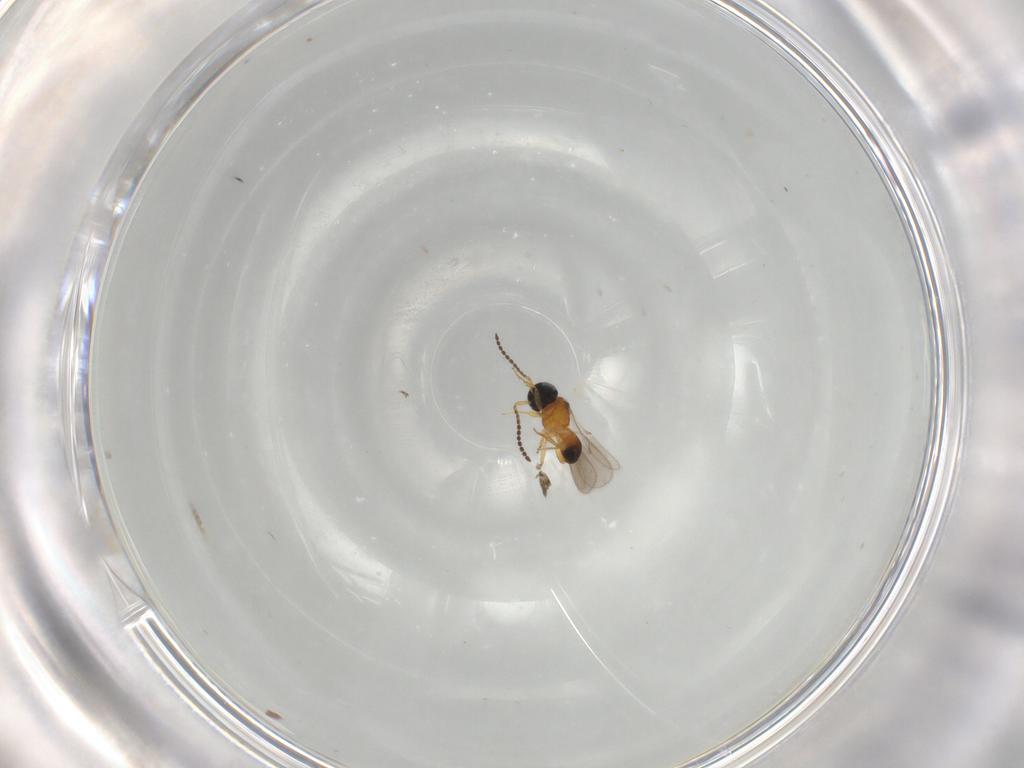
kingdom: Animalia
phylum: Arthropoda
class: Insecta
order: Hymenoptera
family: Scelionidae
